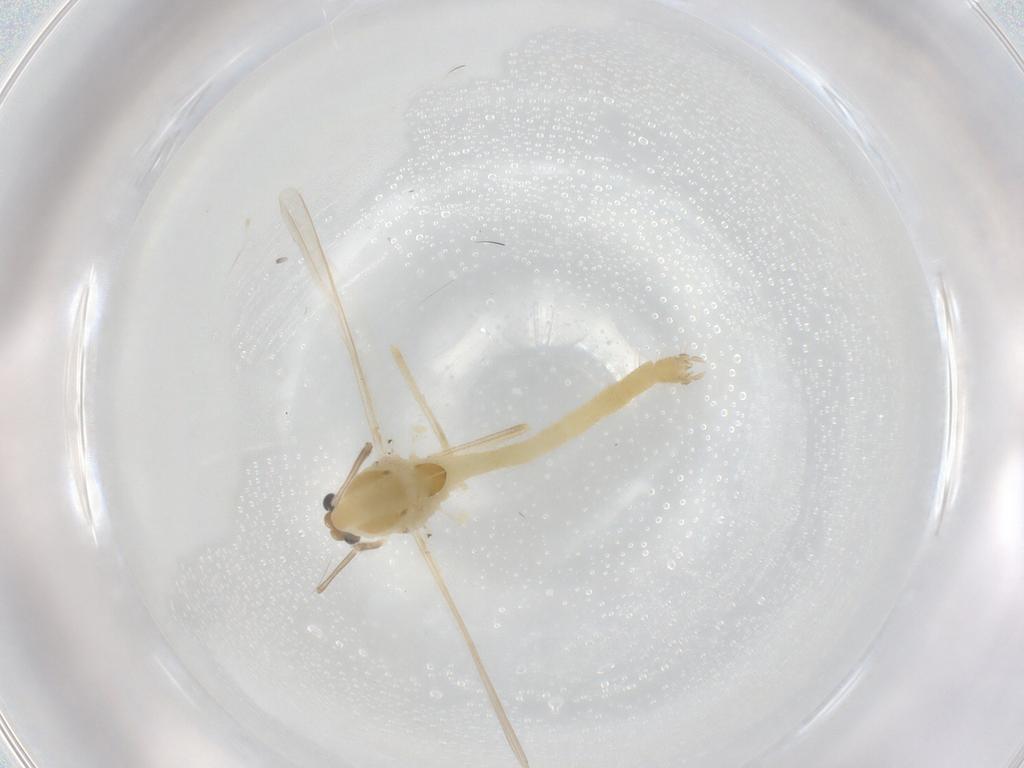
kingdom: Animalia
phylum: Arthropoda
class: Insecta
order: Diptera
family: Chironomidae
